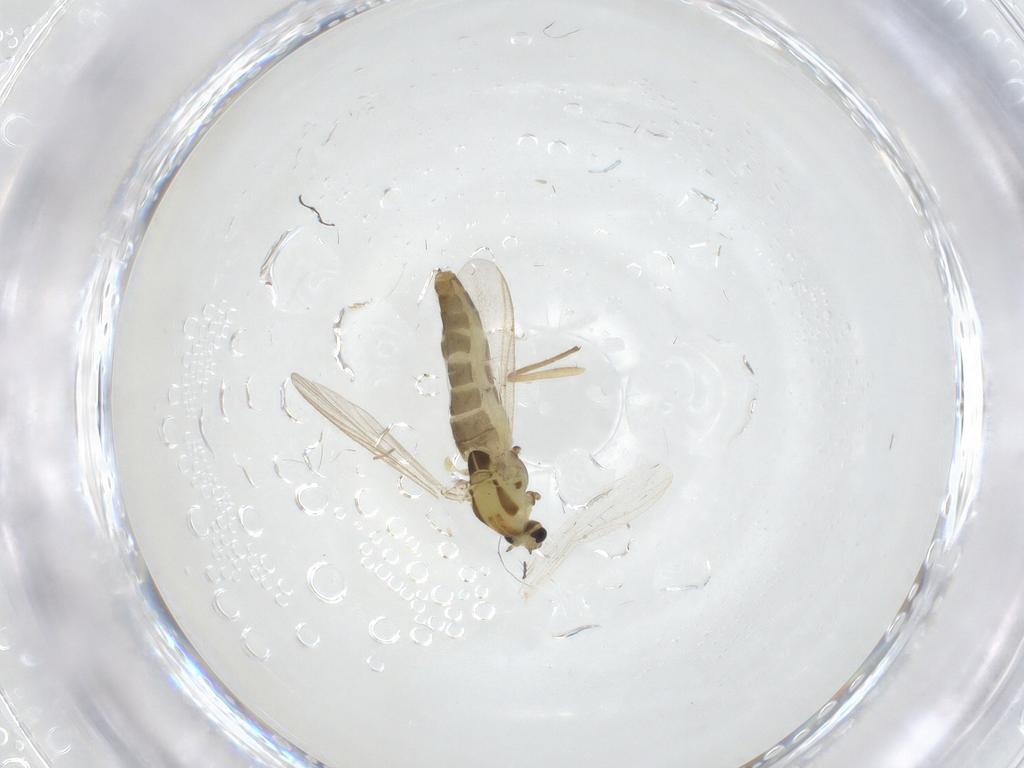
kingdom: Animalia
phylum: Arthropoda
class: Insecta
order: Diptera
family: Chironomidae
